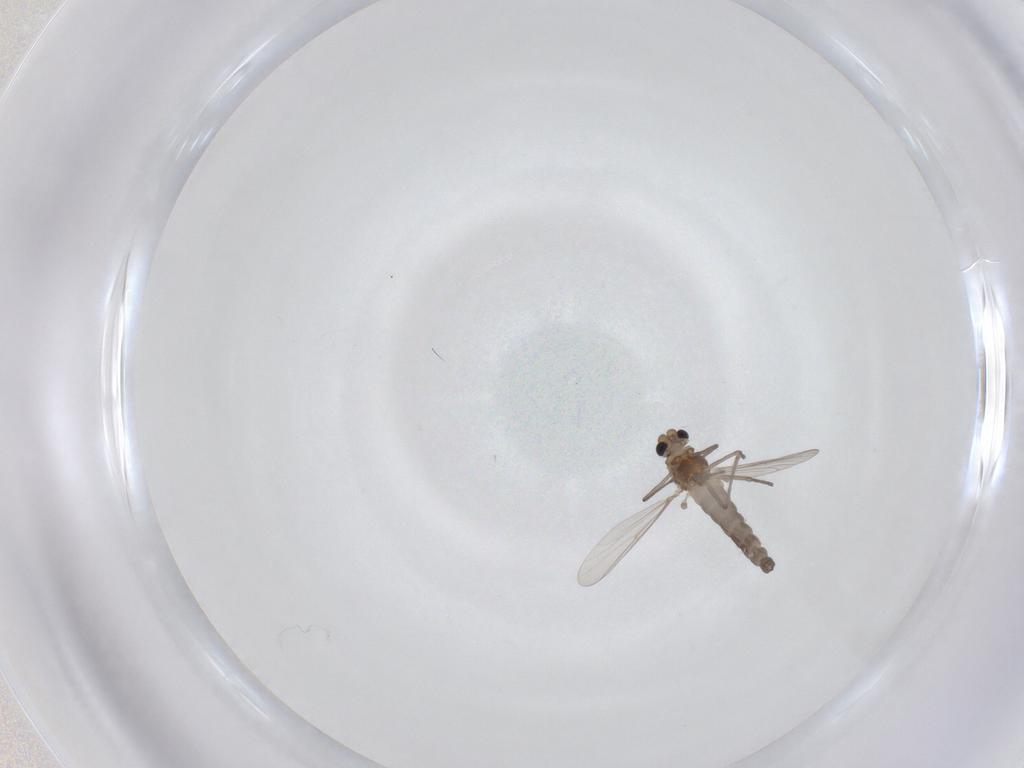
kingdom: Animalia
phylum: Arthropoda
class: Insecta
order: Diptera
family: Chironomidae
